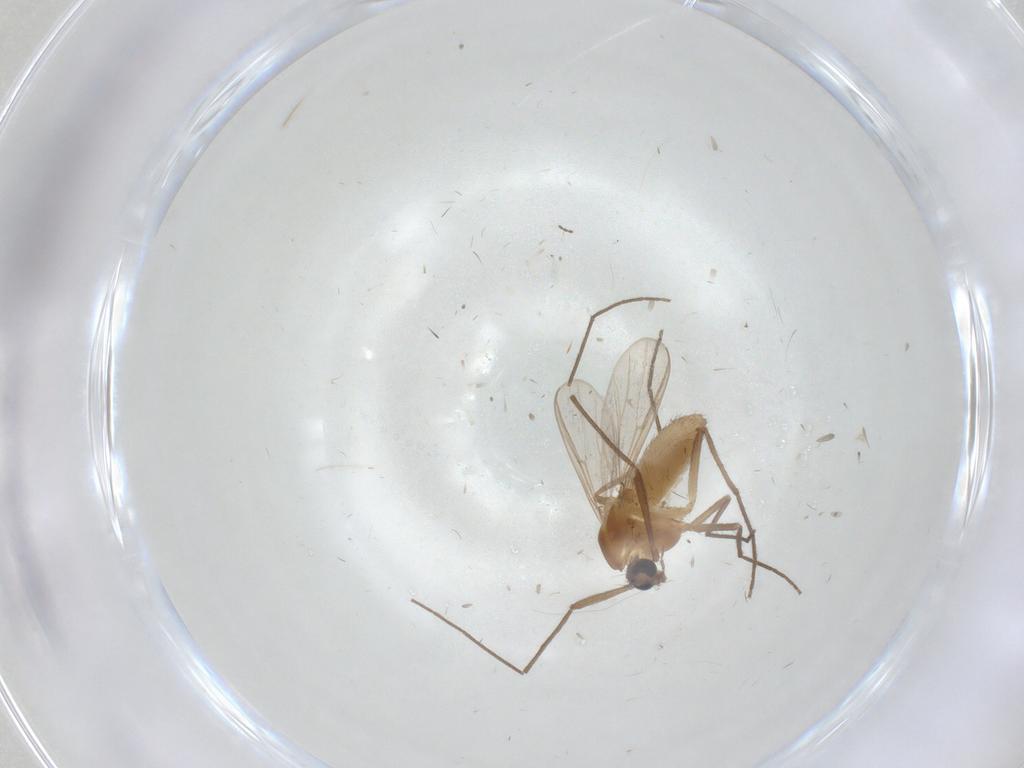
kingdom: Animalia
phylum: Arthropoda
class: Insecta
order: Diptera
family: Chironomidae
